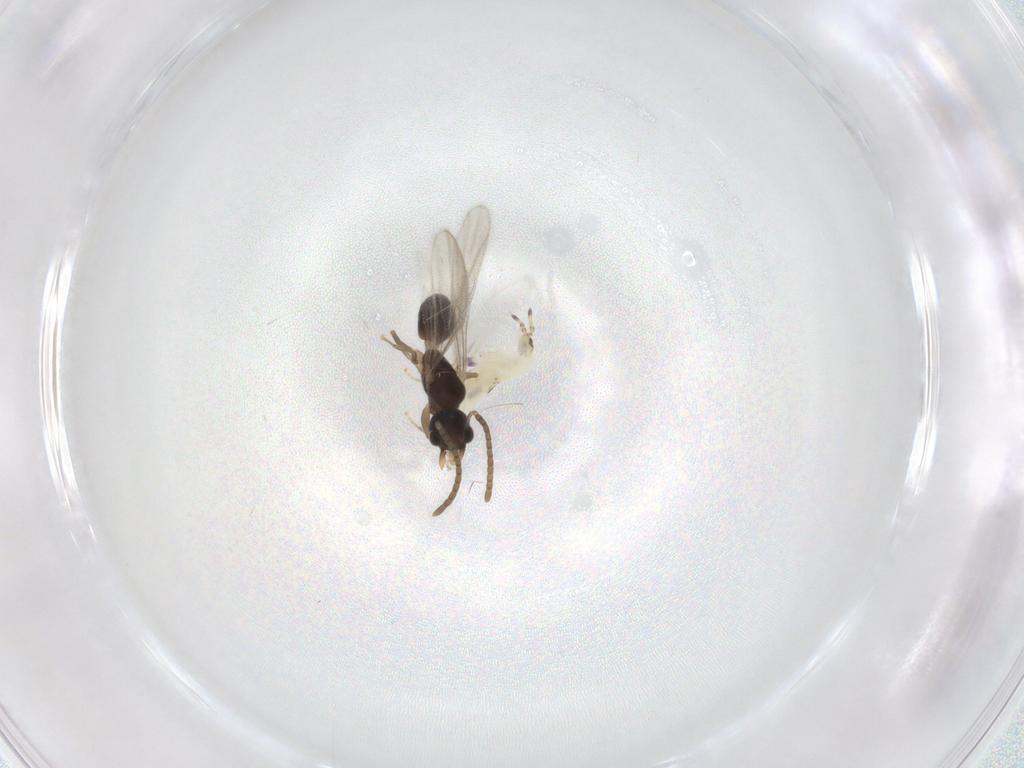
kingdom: Animalia
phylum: Arthropoda
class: Insecta
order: Hymenoptera
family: Formicidae
